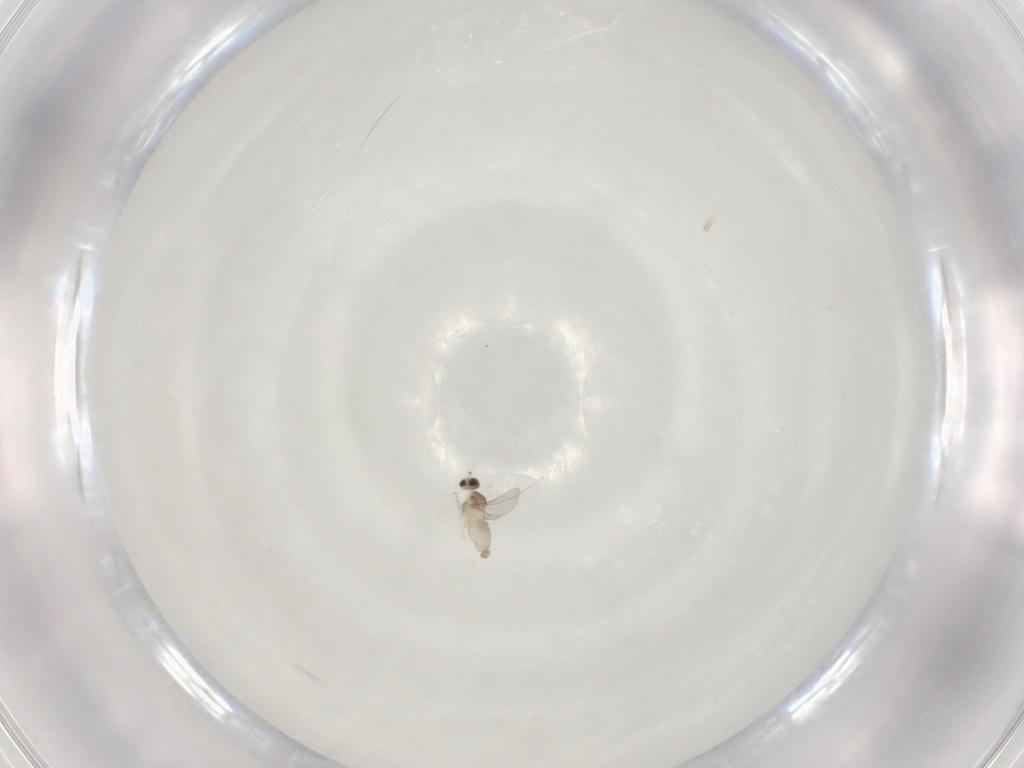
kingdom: Animalia
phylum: Arthropoda
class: Insecta
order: Diptera
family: Cecidomyiidae
